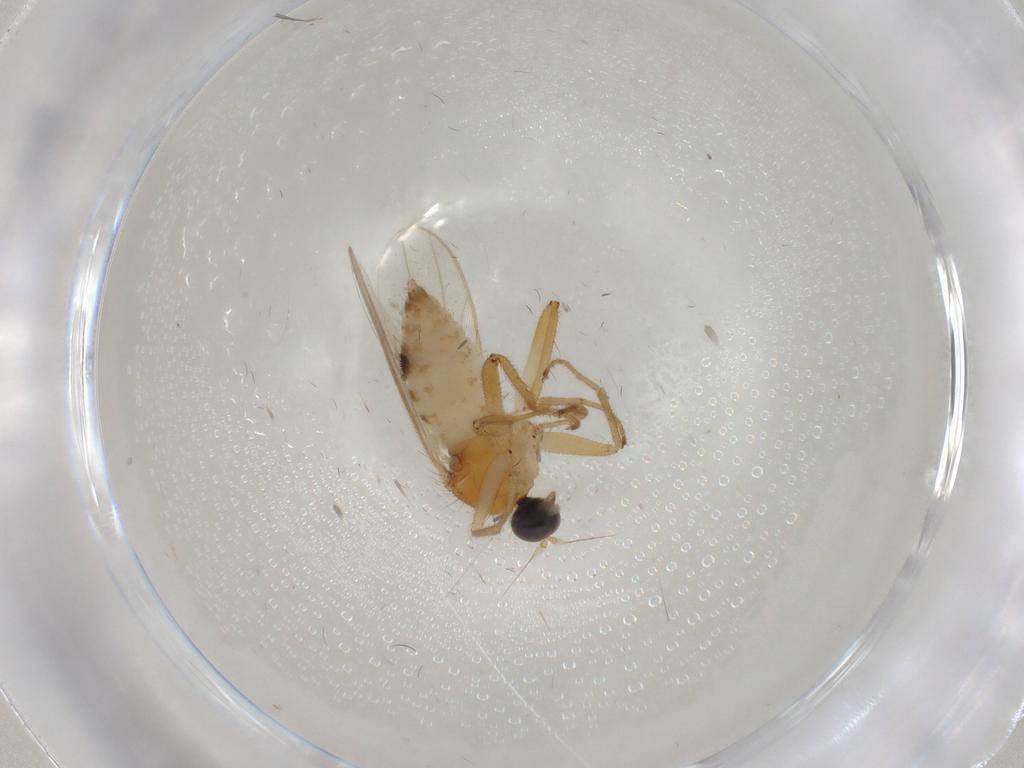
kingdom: Animalia
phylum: Arthropoda
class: Insecta
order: Diptera
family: Hybotidae
